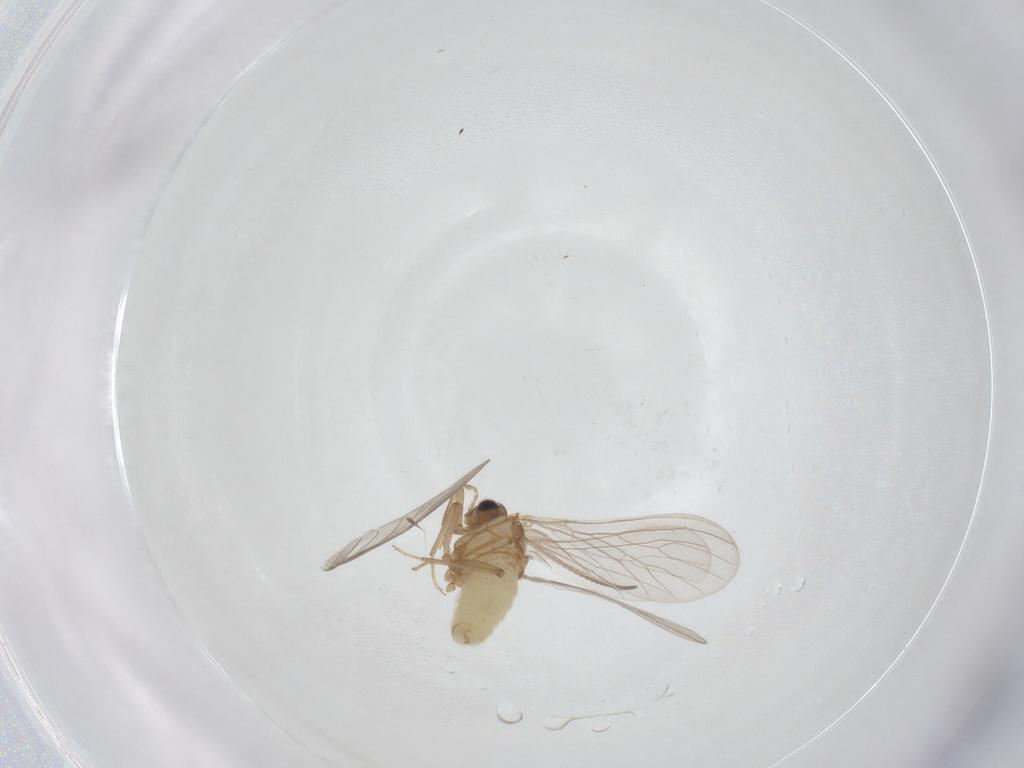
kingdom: Animalia
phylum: Arthropoda
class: Insecta
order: Neuroptera
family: Coniopterygidae
